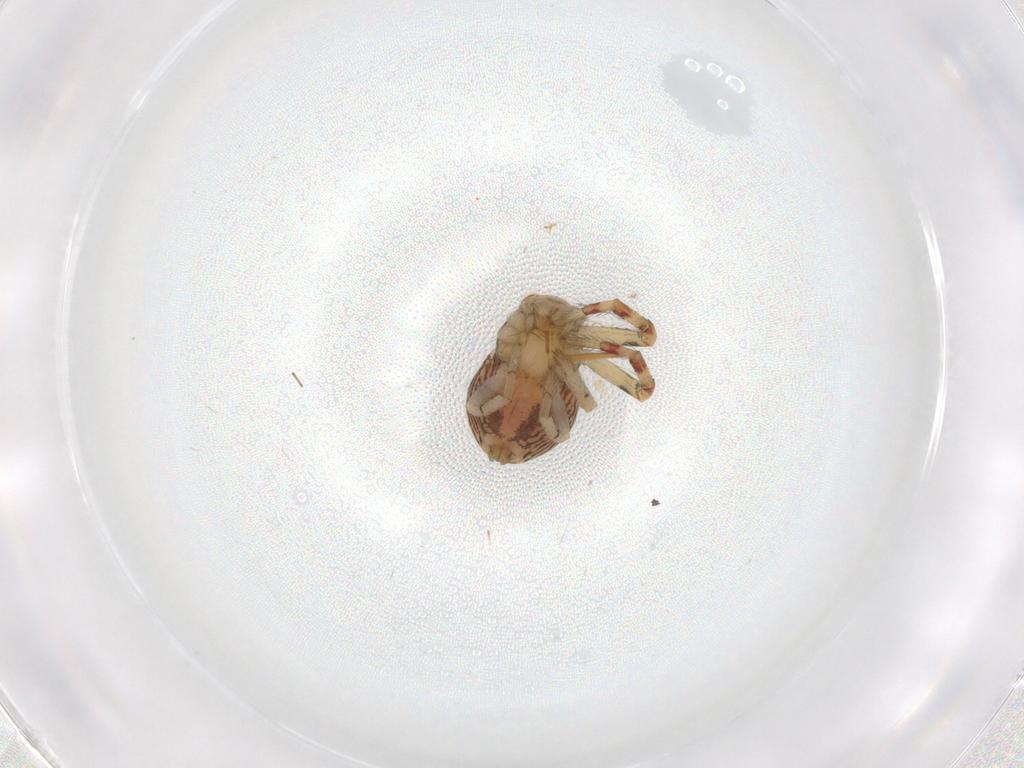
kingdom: Animalia
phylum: Arthropoda
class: Arachnida
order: Araneae
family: Thomisidae
